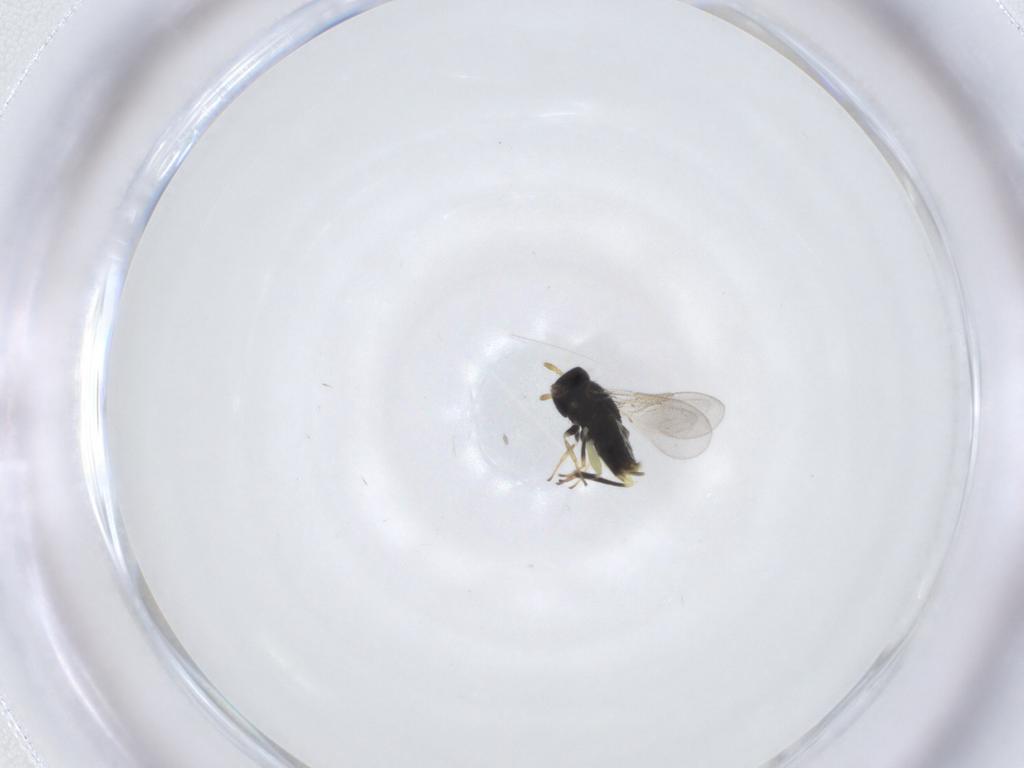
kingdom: Animalia
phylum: Arthropoda
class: Insecta
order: Hymenoptera
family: Aphelinidae
